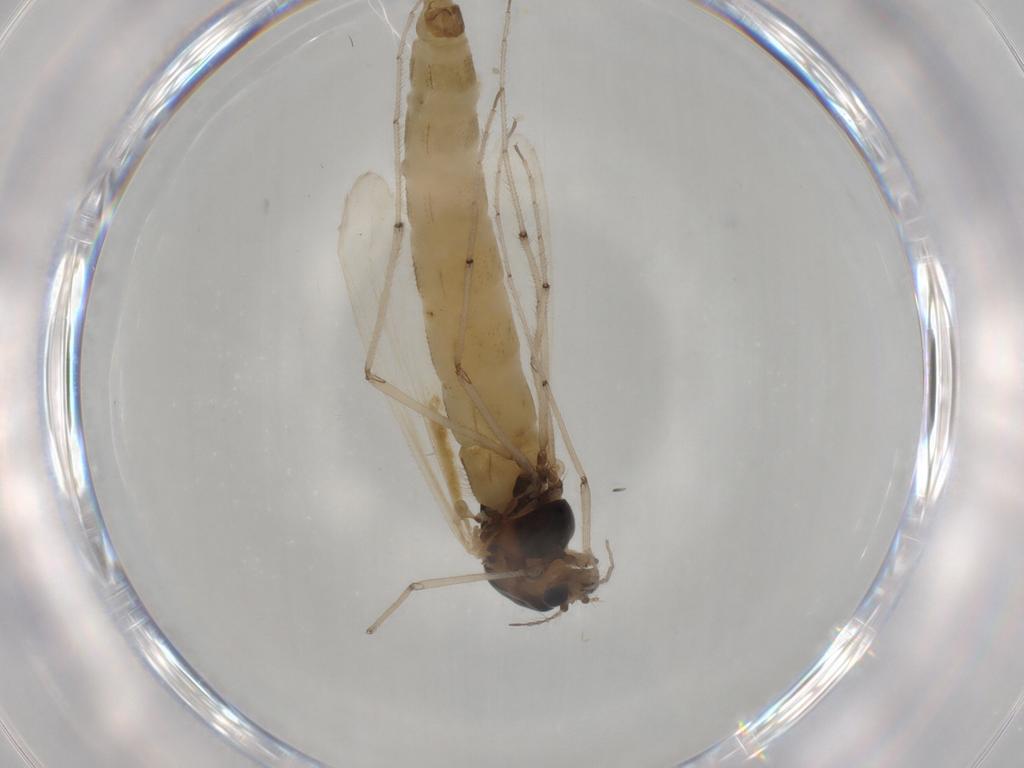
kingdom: Animalia
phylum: Arthropoda
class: Insecta
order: Diptera
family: Chironomidae
